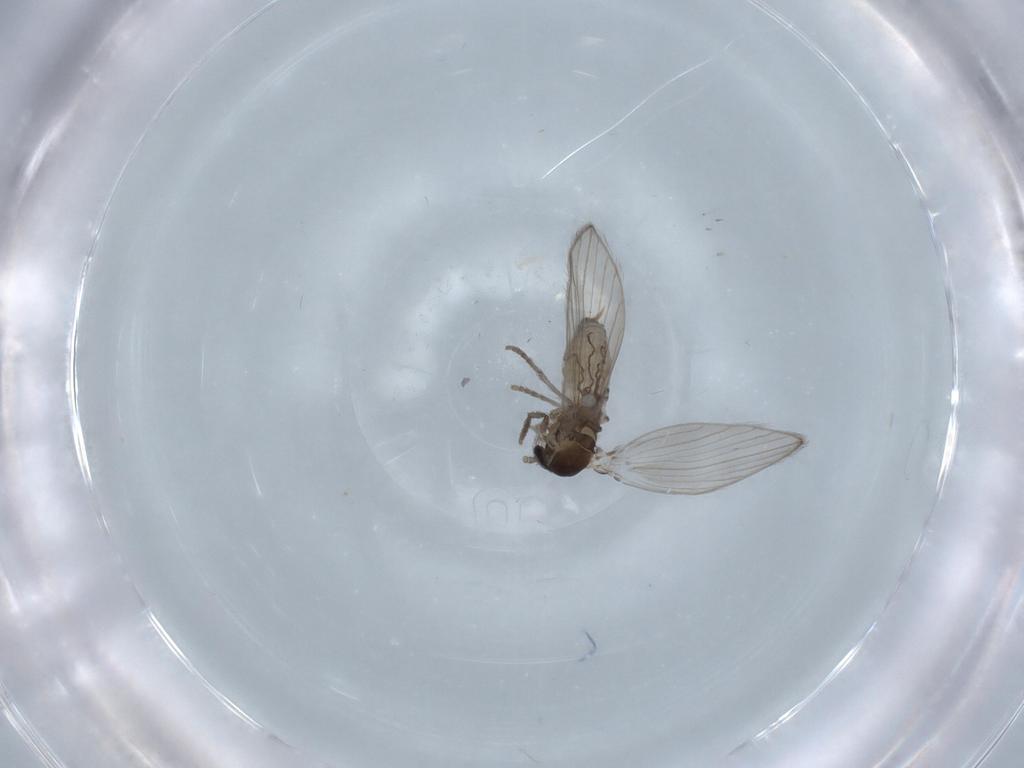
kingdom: Animalia
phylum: Arthropoda
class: Insecta
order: Diptera
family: Psychodidae
